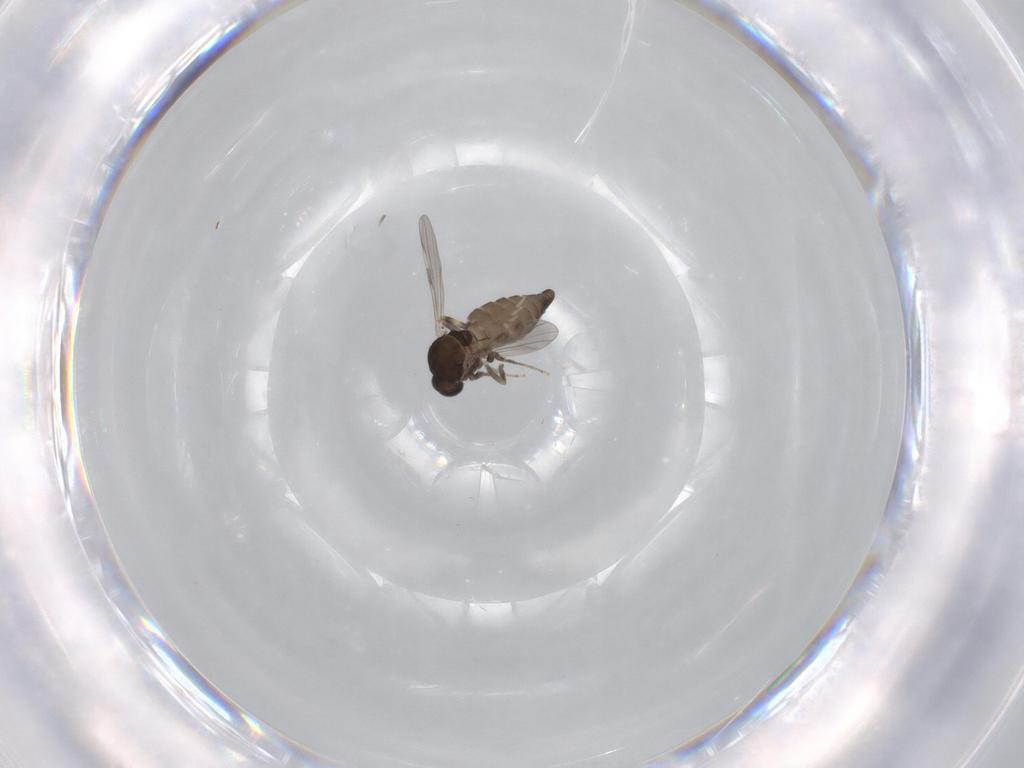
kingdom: Animalia
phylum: Arthropoda
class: Insecta
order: Diptera
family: Ceratopogonidae
